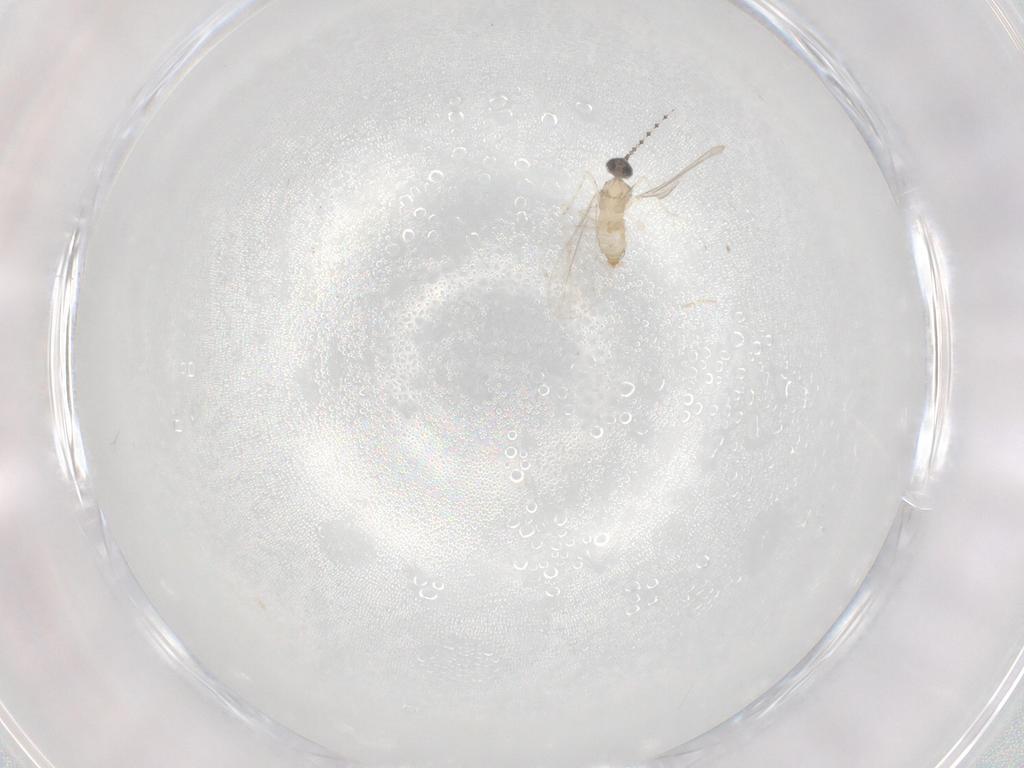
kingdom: Animalia
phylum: Arthropoda
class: Insecta
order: Diptera
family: Cecidomyiidae
